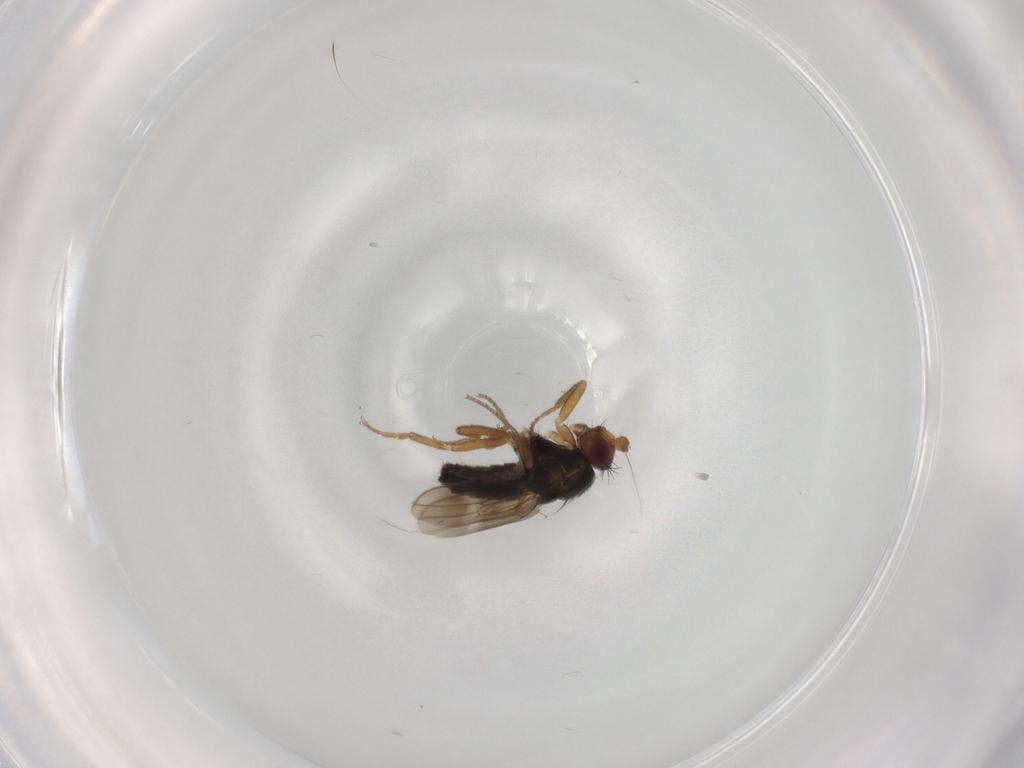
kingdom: Animalia
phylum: Arthropoda
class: Insecta
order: Diptera
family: Sphaeroceridae
